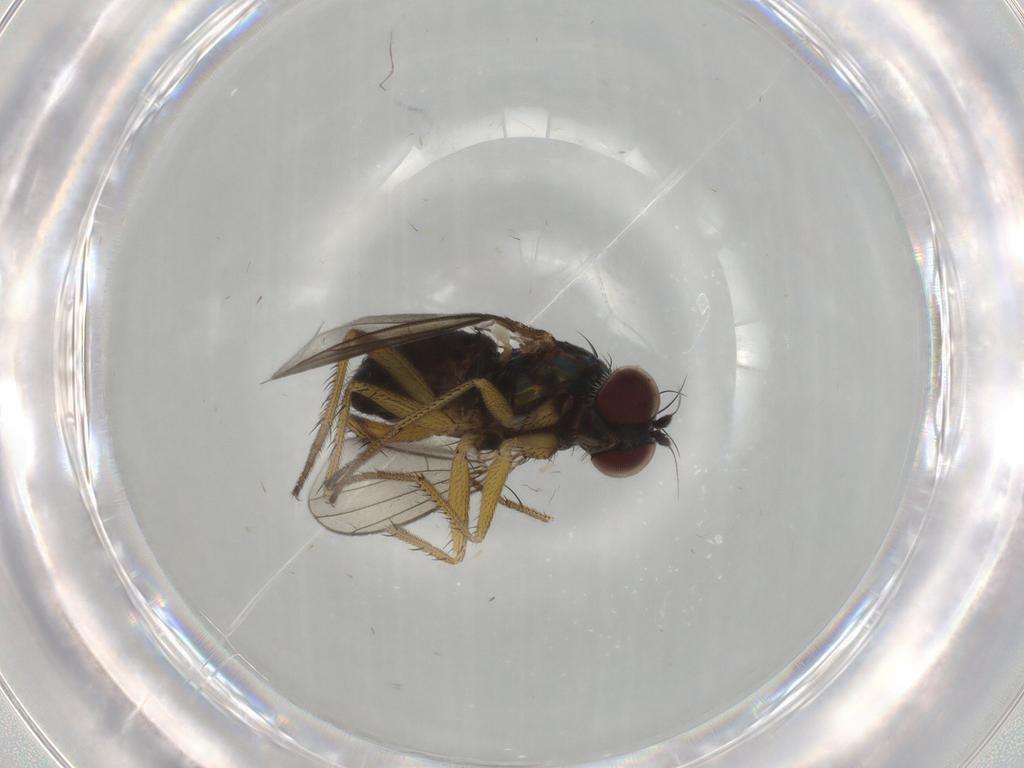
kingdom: Animalia
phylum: Arthropoda
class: Insecta
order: Diptera
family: Dolichopodidae
